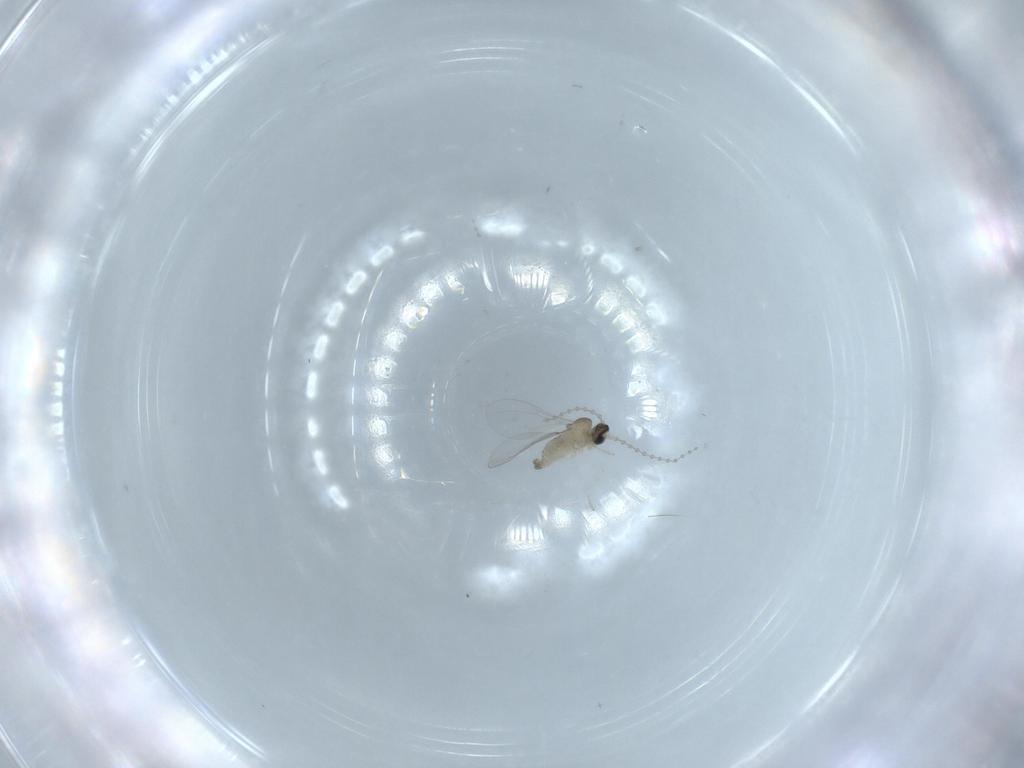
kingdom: Animalia
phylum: Arthropoda
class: Insecta
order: Diptera
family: Cecidomyiidae
